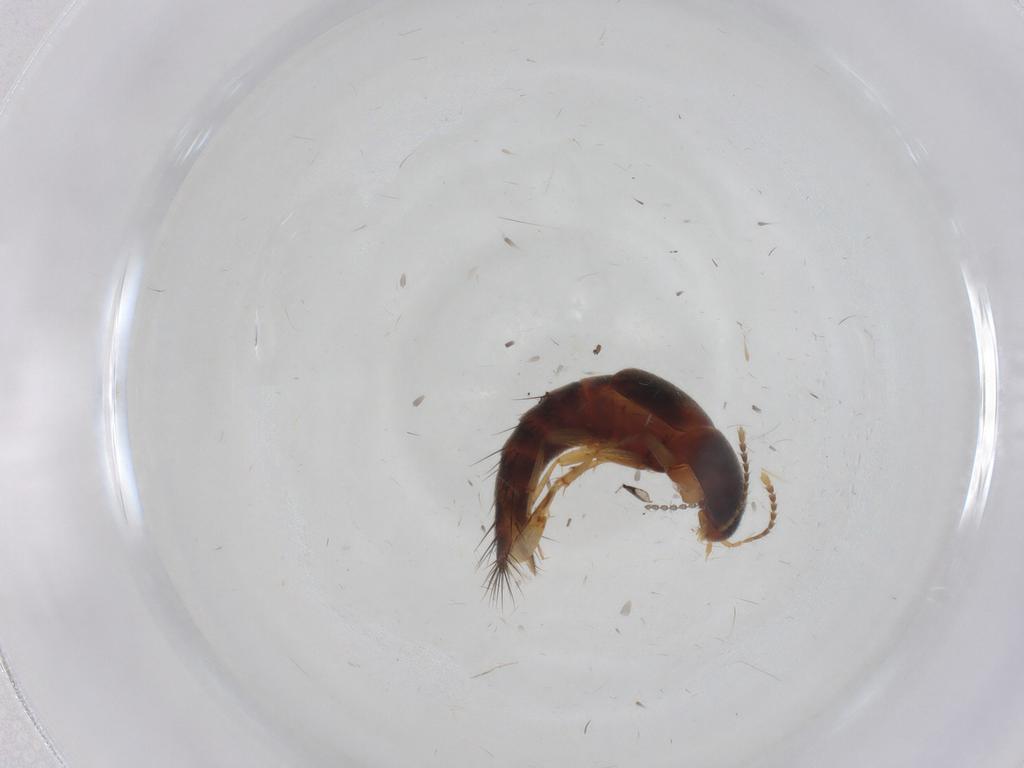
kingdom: Animalia
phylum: Arthropoda
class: Insecta
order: Coleoptera
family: Staphylinidae
